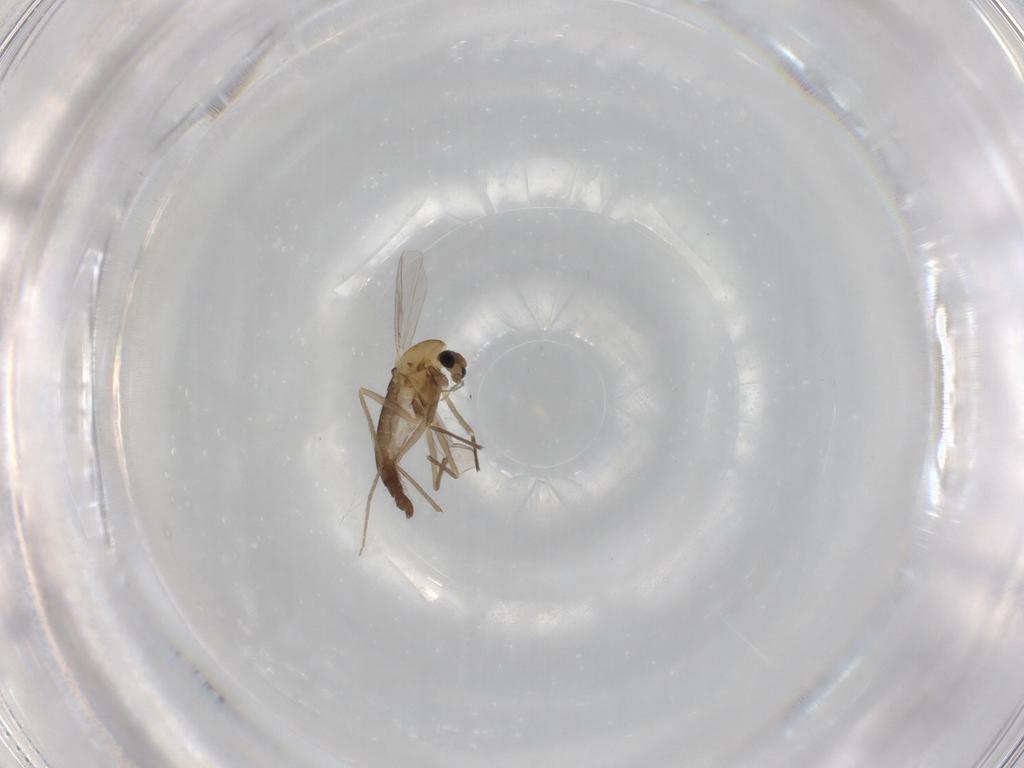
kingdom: Animalia
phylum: Arthropoda
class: Insecta
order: Diptera
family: Chironomidae
